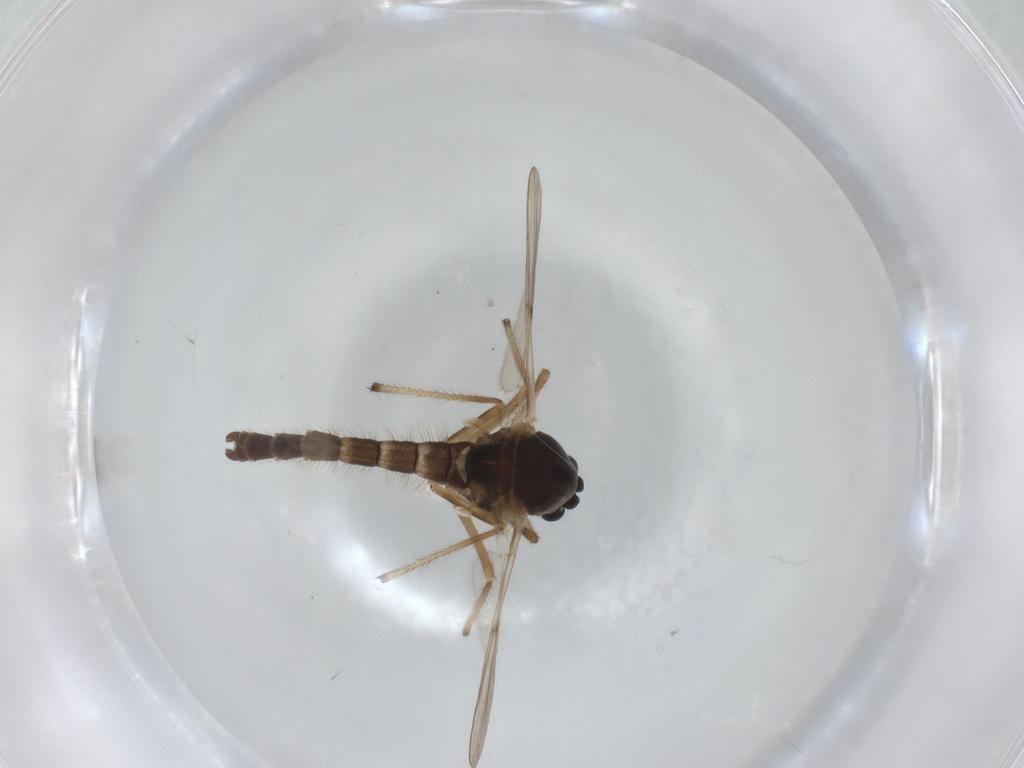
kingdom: Animalia
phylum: Arthropoda
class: Insecta
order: Diptera
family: Chironomidae
